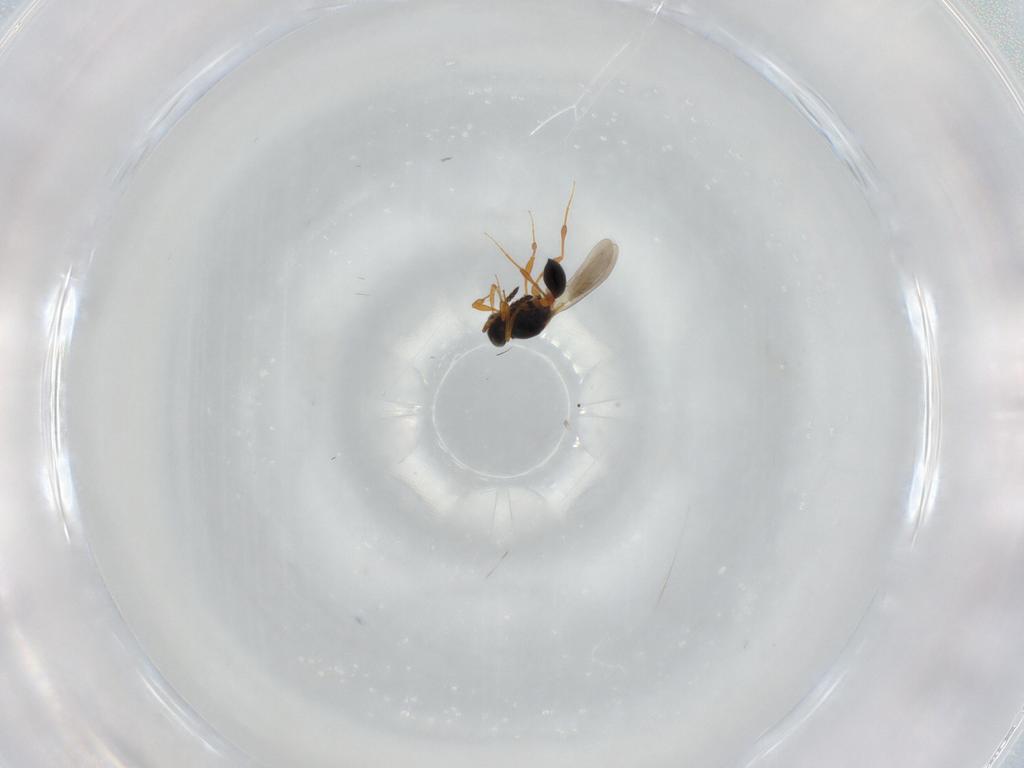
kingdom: Animalia
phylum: Arthropoda
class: Insecta
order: Hymenoptera
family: Platygastridae
